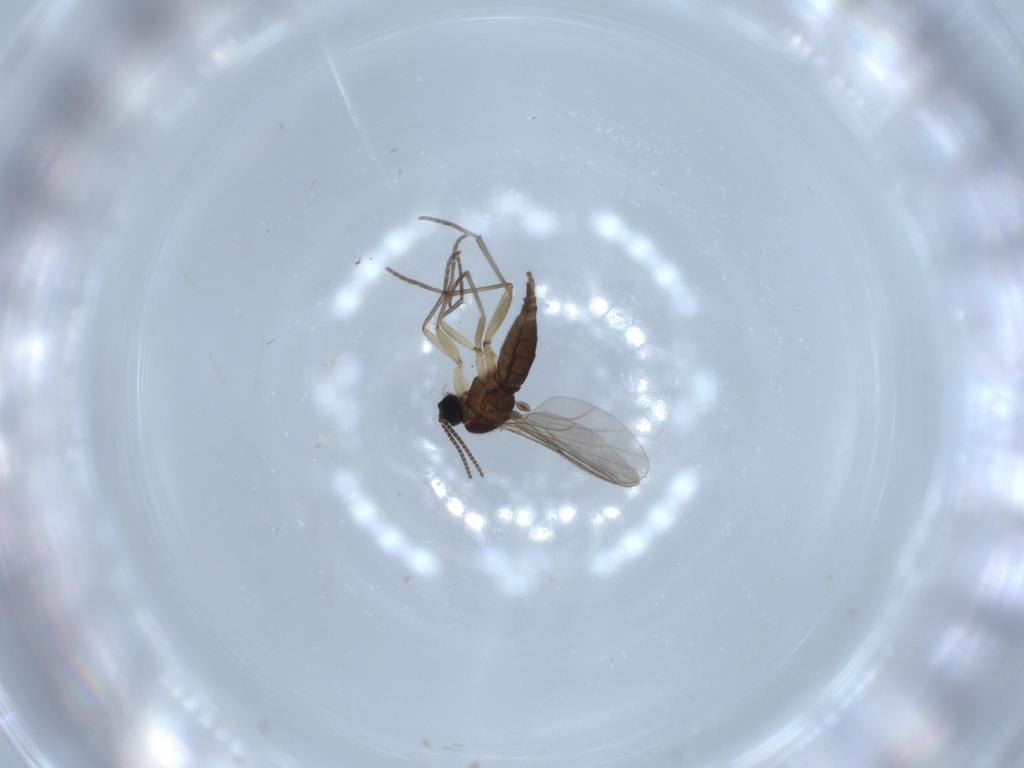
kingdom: Animalia
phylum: Arthropoda
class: Insecta
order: Diptera
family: Sciaridae
